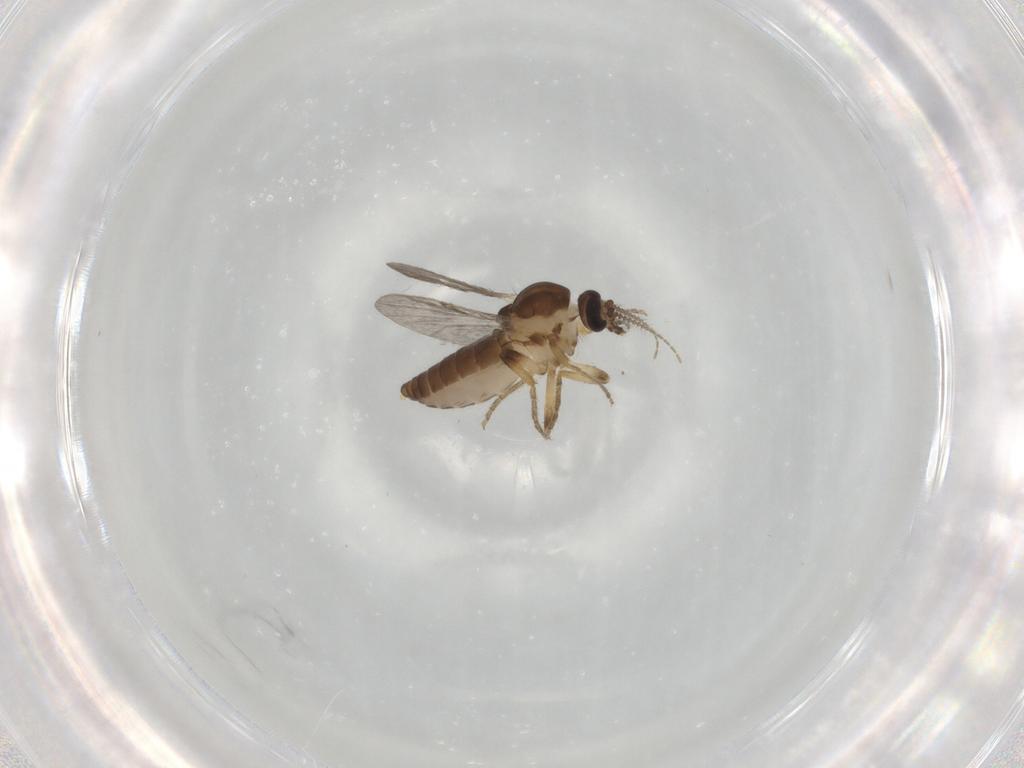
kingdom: Animalia
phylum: Arthropoda
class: Insecta
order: Diptera
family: Ceratopogonidae
